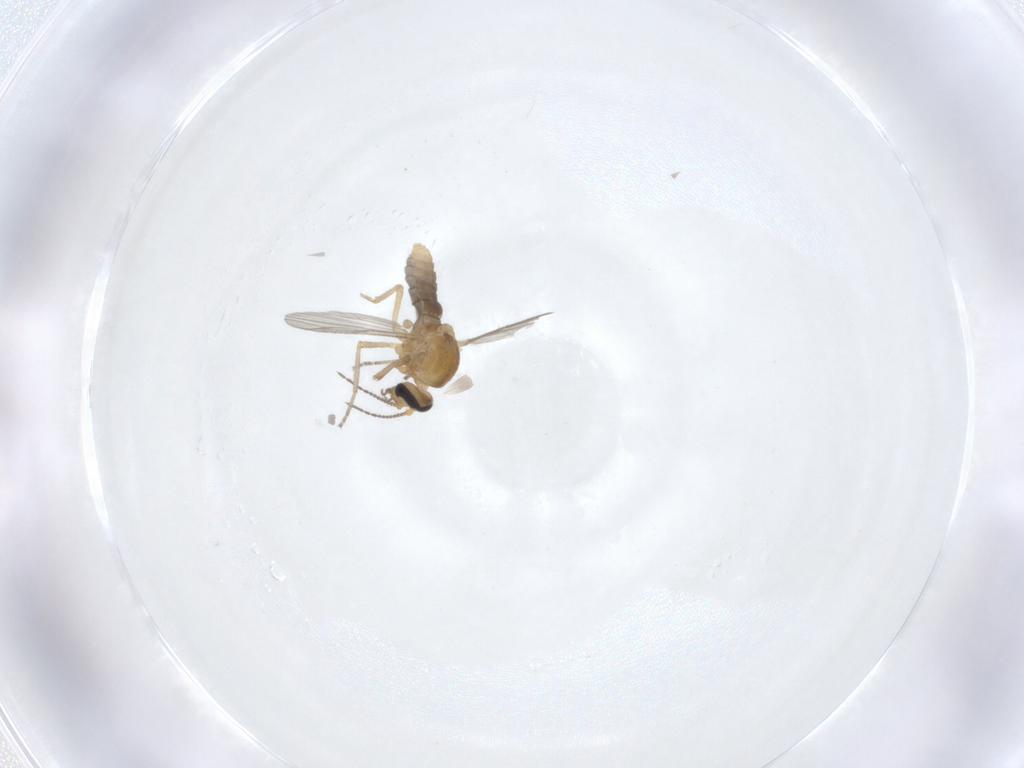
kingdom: Animalia
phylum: Arthropoda
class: Insecta
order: Diptera
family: Ceratopogonidae
